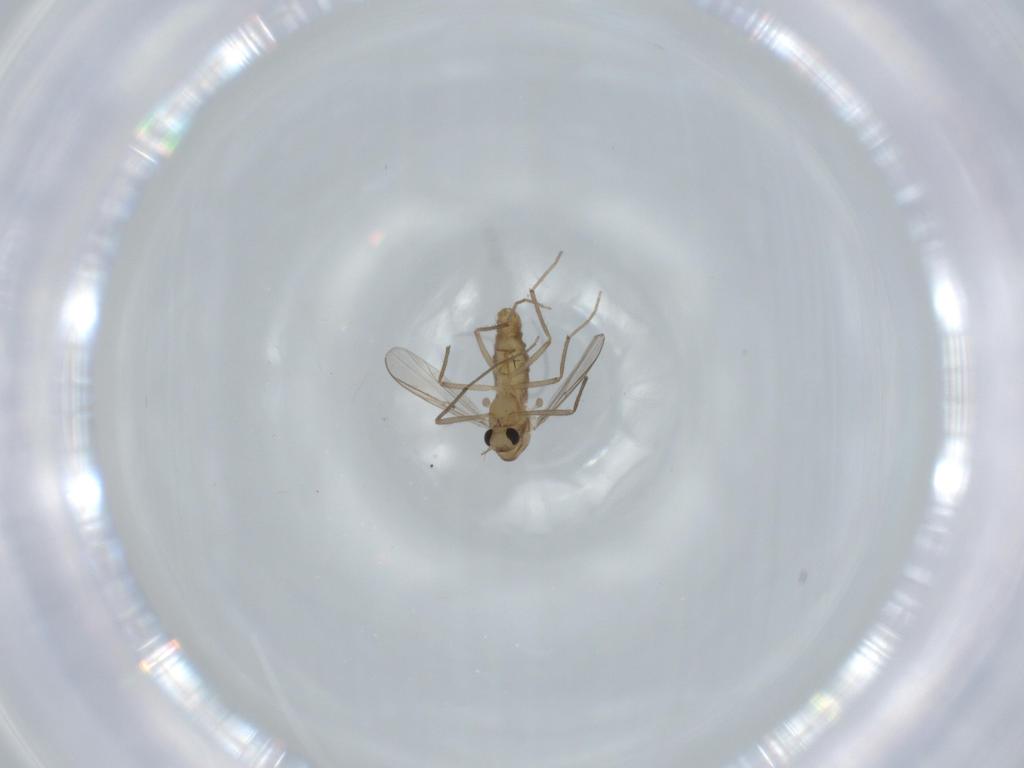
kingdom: Animalia
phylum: Arthropoda
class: Insecta
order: Diptera
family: Chironomidae
